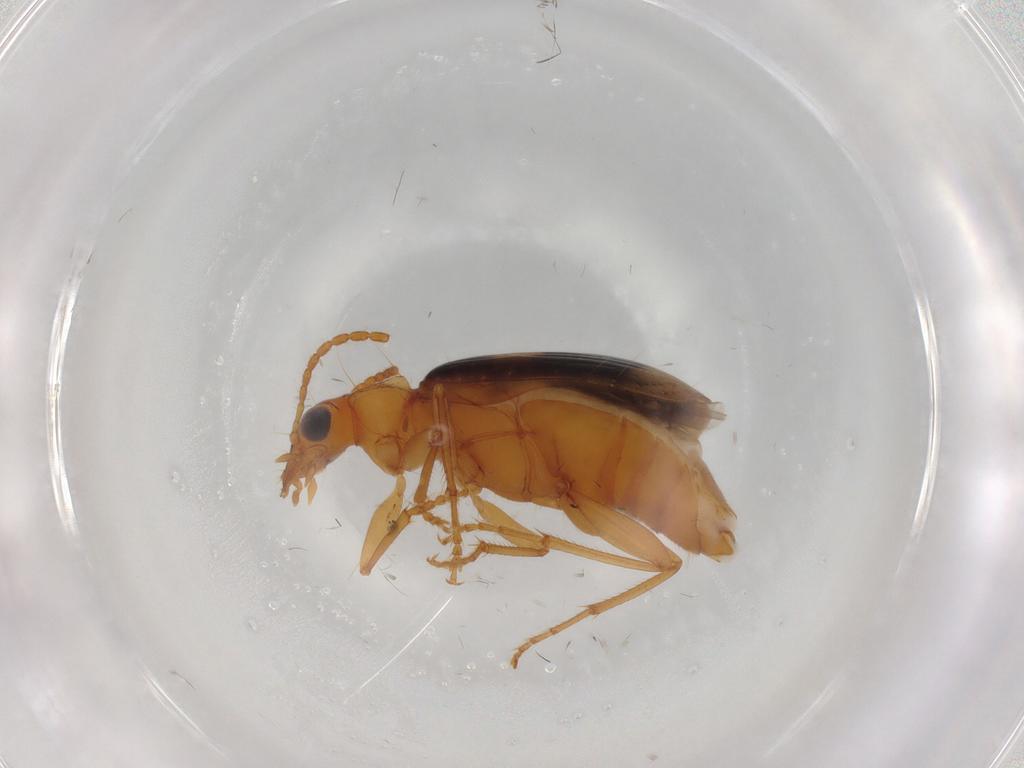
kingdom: Animalia
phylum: Arthropoda
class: Insecta
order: Coleoptera
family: Carabidae
